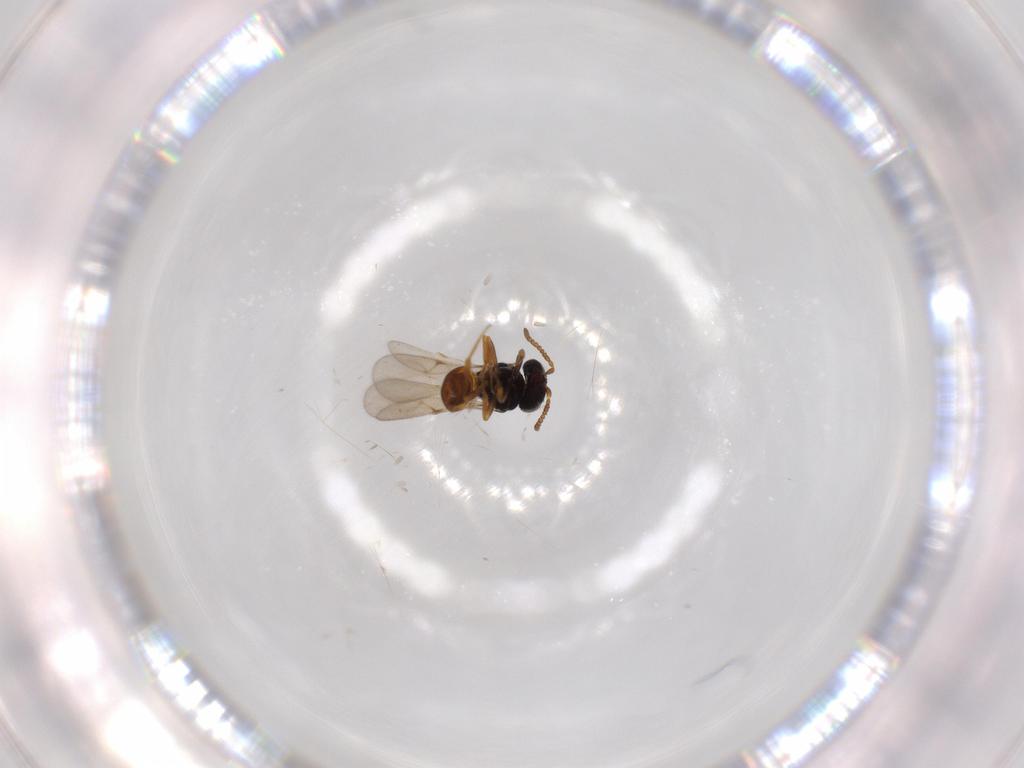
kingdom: Animalia
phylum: Arthropoda
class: Insecta
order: Hymenoptera
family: Scelionidae
